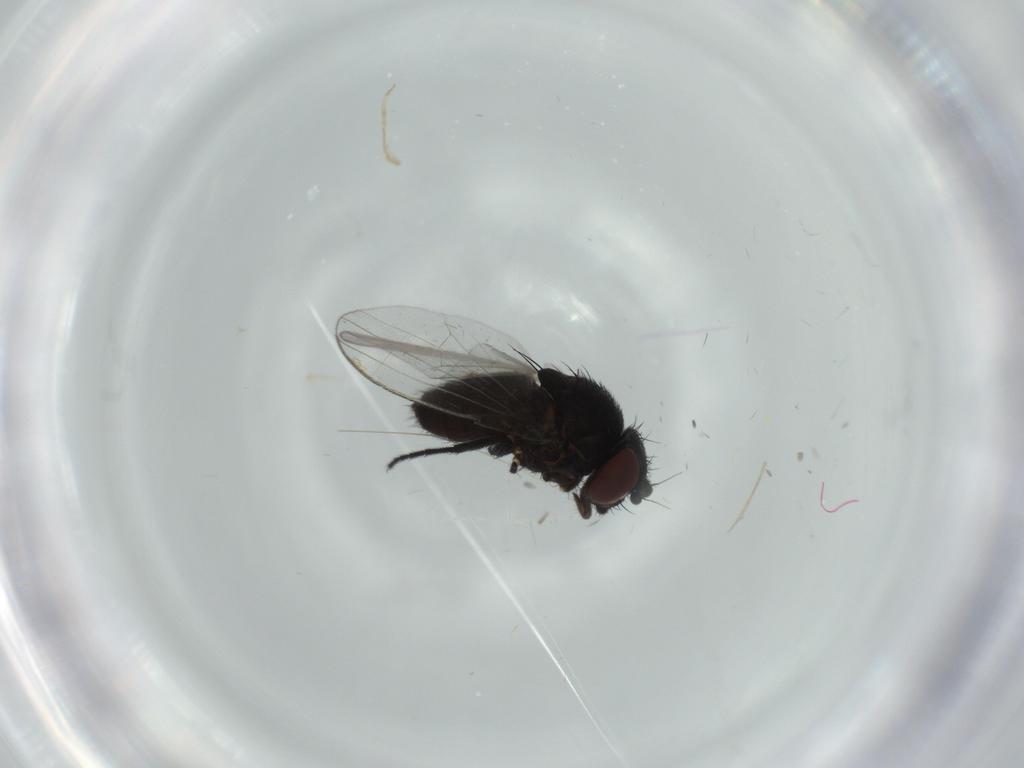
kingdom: Animalia
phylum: Arthropoda
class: Insecta
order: Diptera
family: Milichiidae
